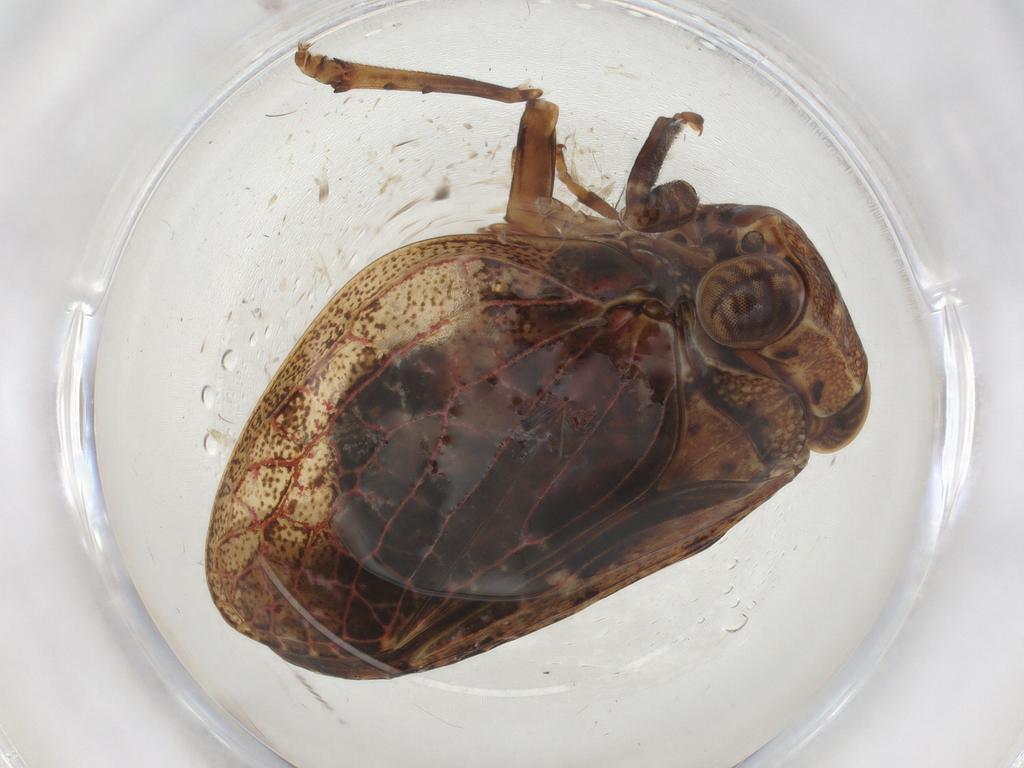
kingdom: Animalia
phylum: Arthropoda
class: Insecta
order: Hemiptera
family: Issidae
